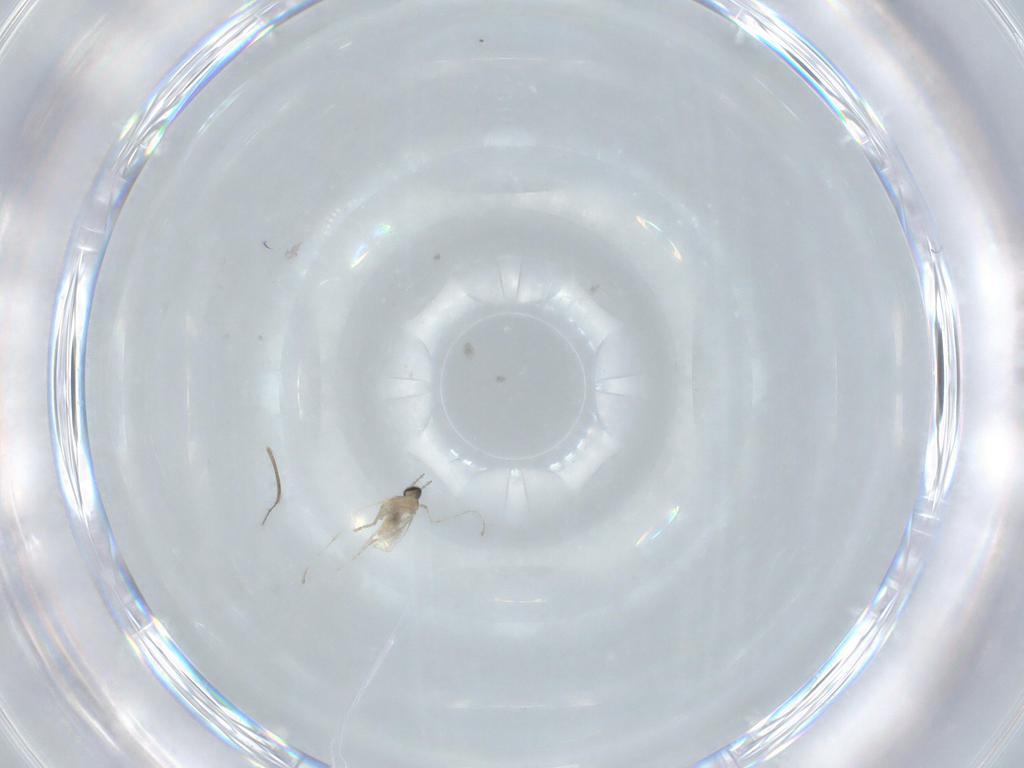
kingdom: Animalia
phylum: Arthropoda
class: Insecta
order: Diptera
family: Ceratopogonidae
